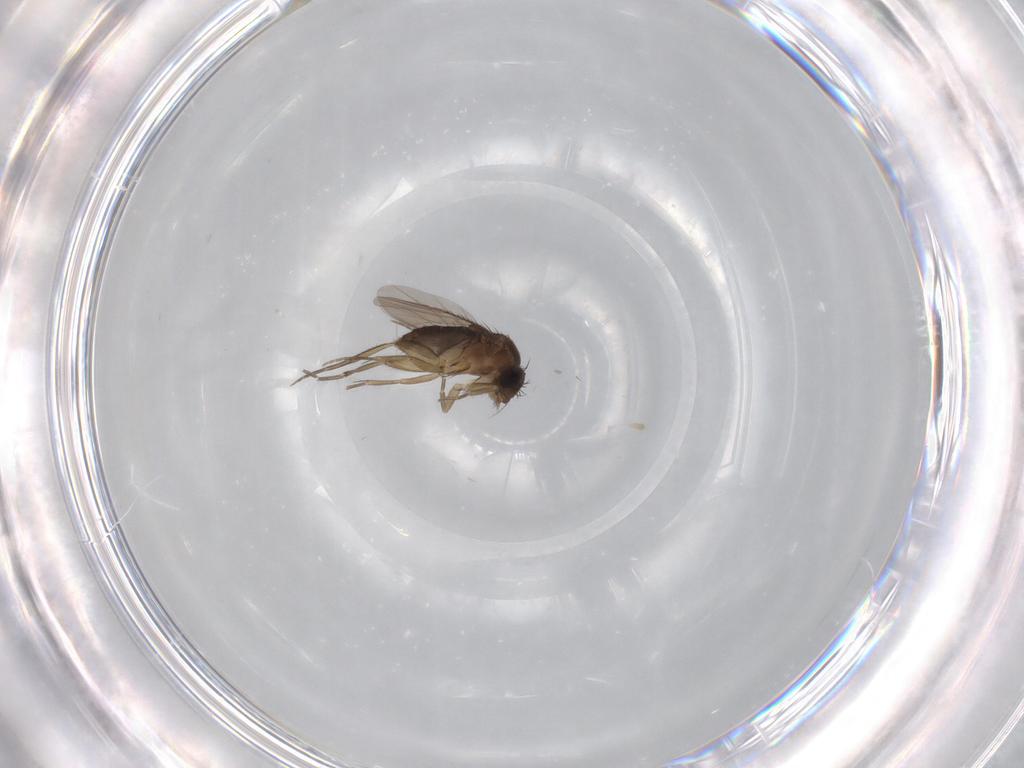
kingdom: Animalia
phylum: Arthropoda
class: Insecta
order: Diptera
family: Phoridae
